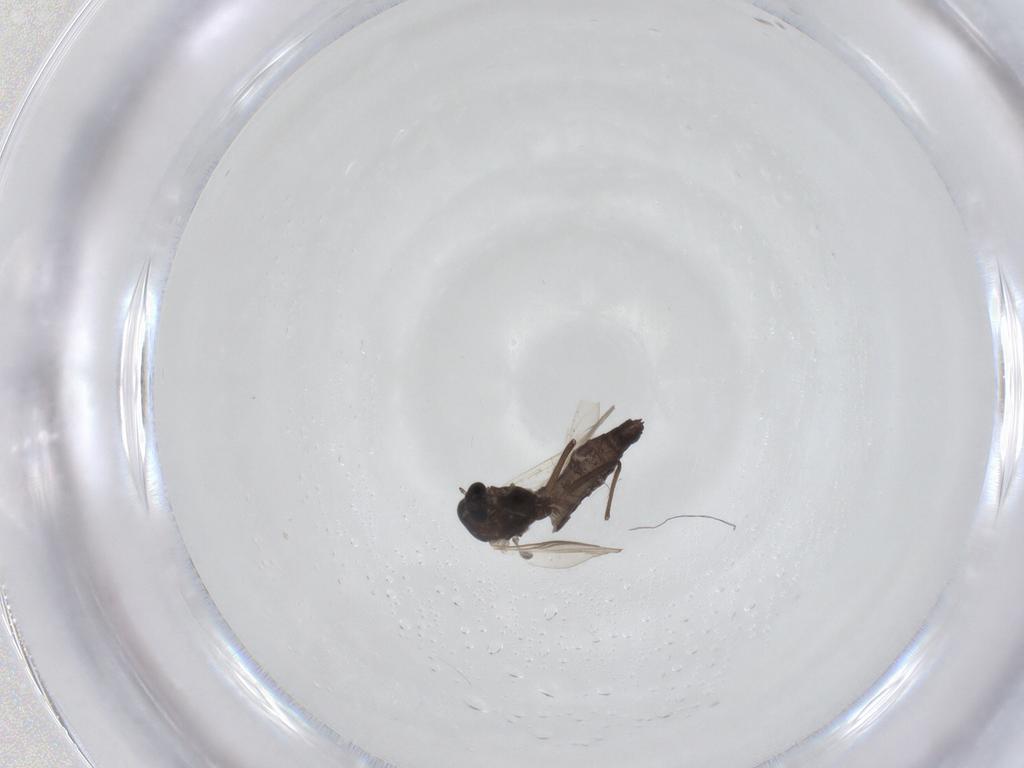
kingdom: Animalia
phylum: Arthropoda
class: Insecta
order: Diptera
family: Chironomidae
